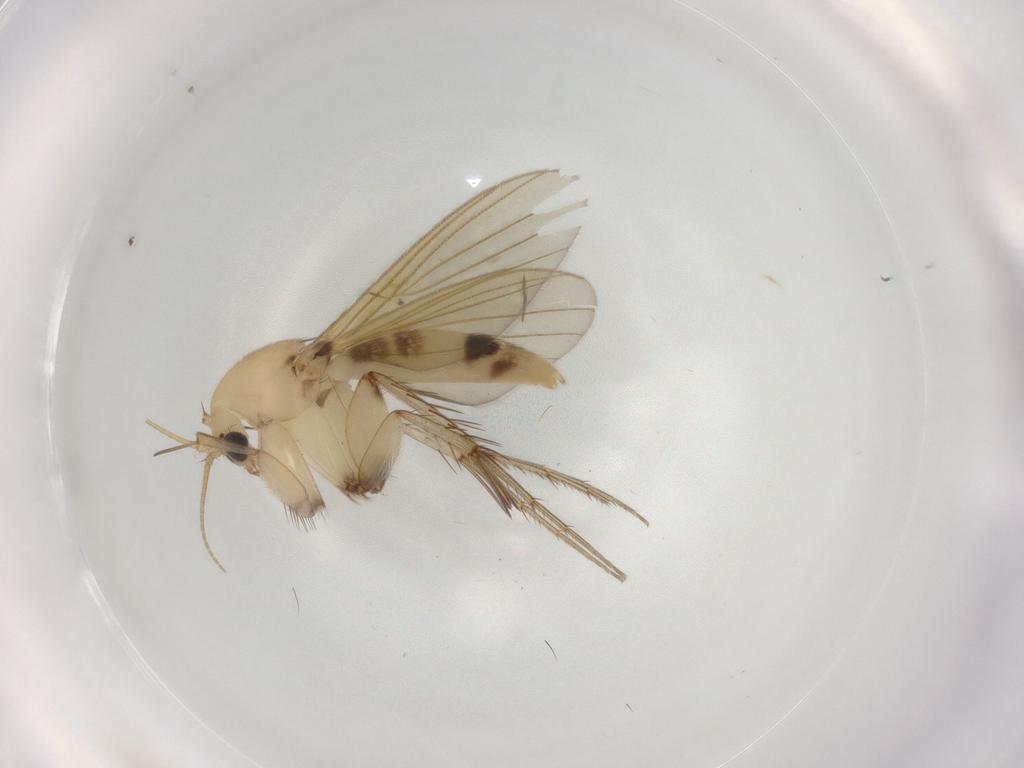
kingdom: Animalia
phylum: Arthropoda
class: Insecta
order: Diptera
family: Mycetophilidae
